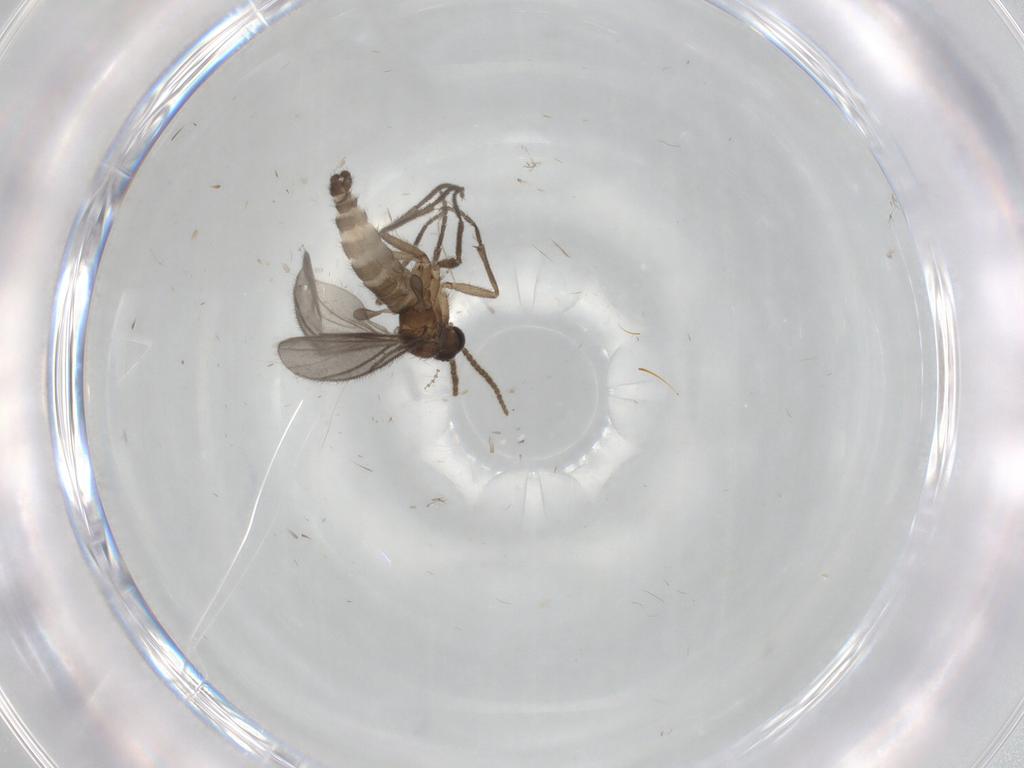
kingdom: Animalia
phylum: Arthropoda
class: Insecta
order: Diptera
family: Sciaridae
